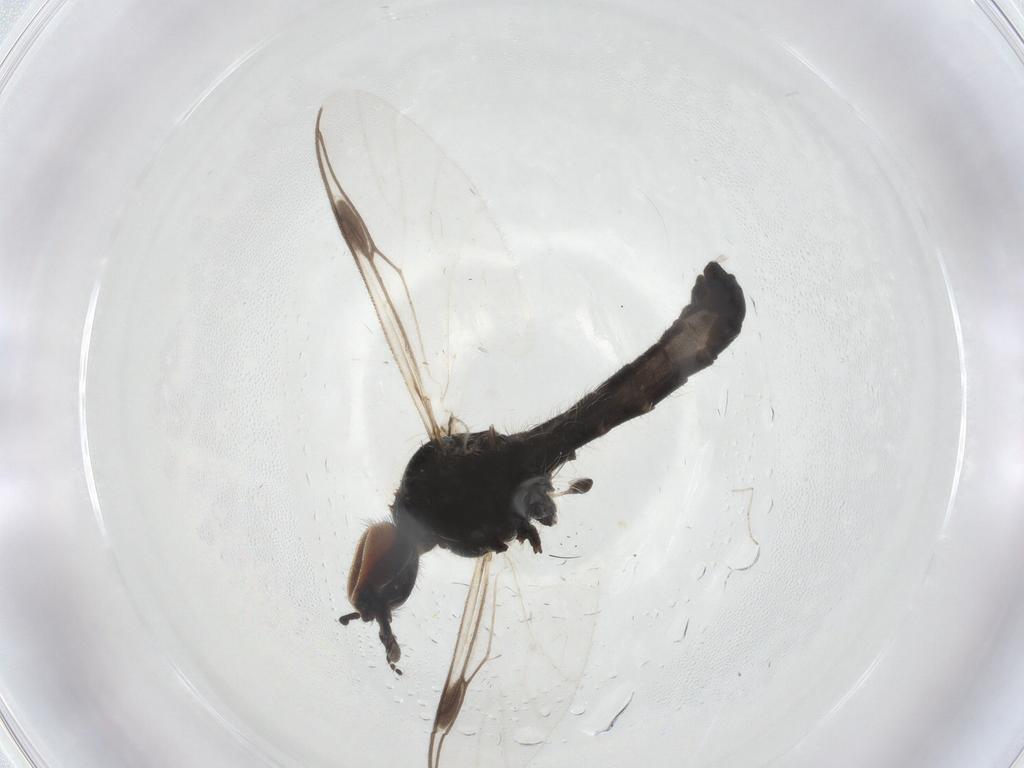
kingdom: Animalia
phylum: Arthropoda
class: Insecta
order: Diptera
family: Bibionidae
